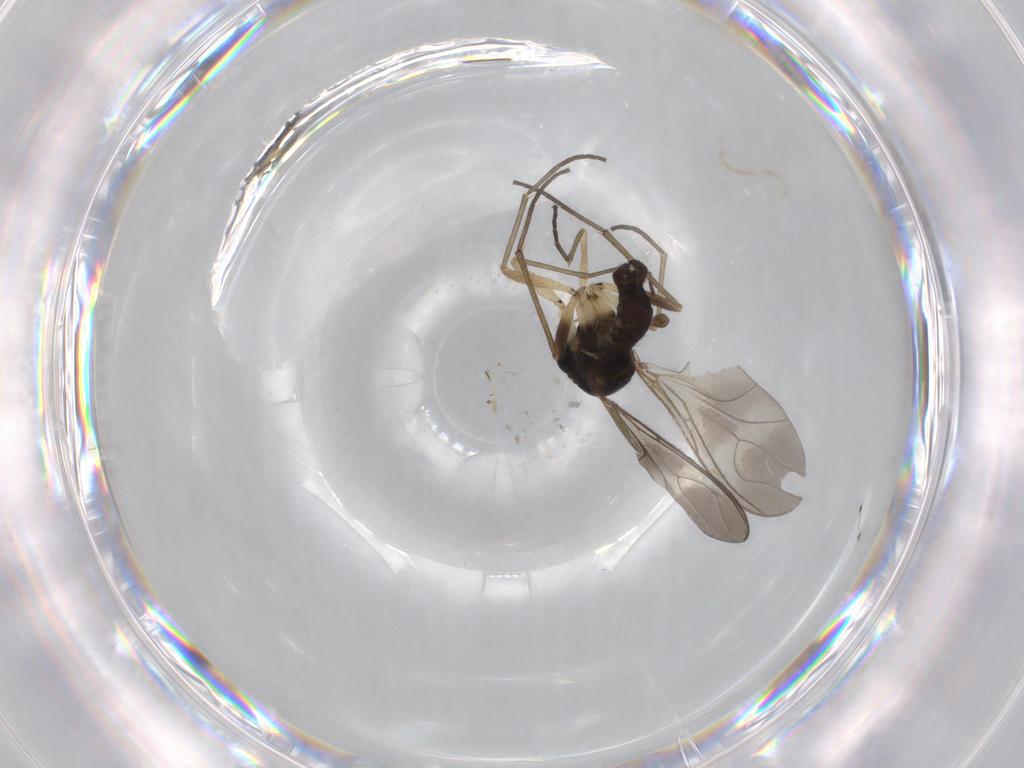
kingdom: Animalia
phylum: Arthropoda
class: Insecta
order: Diptera
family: Sciaridae
